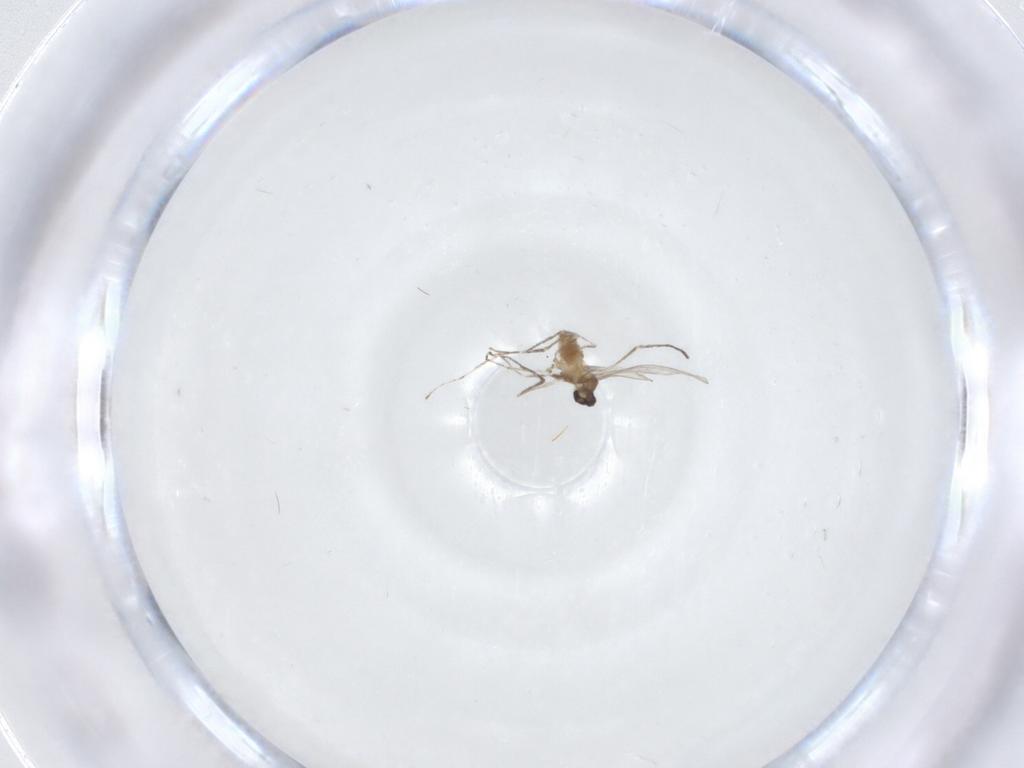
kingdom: Animalia
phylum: Arthropoda
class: Insecta
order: Diptera
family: Cecidomyiidae
